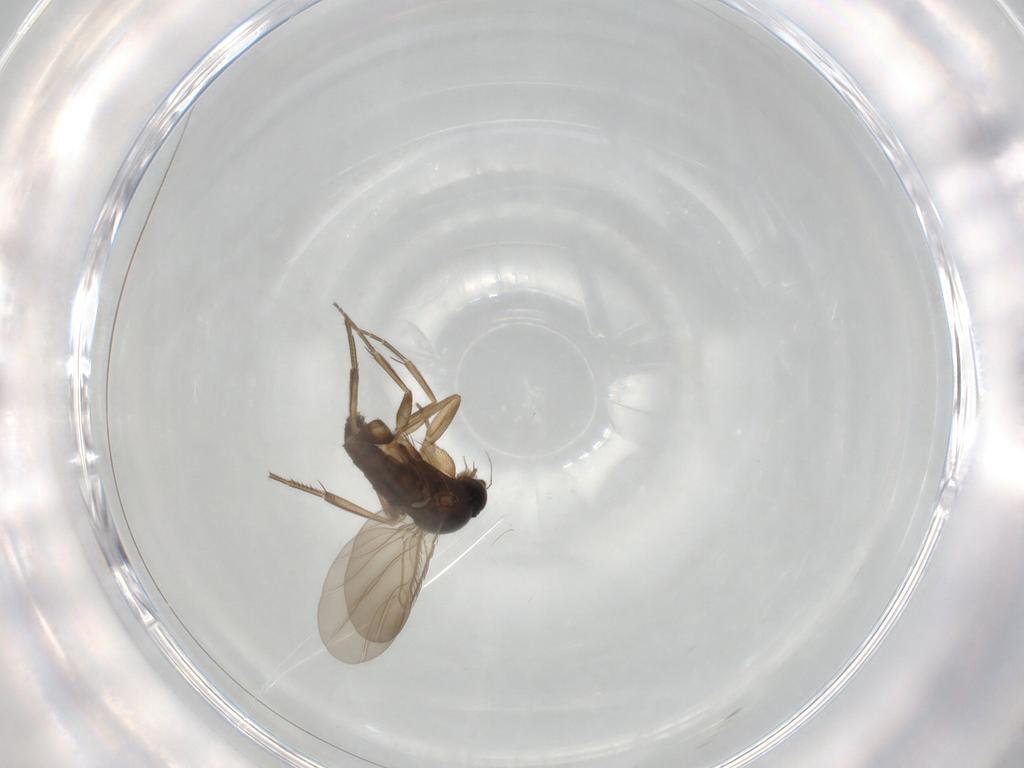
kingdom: Animalia
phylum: Arthropoda
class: Insecta
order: Diptera
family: Phoridae
